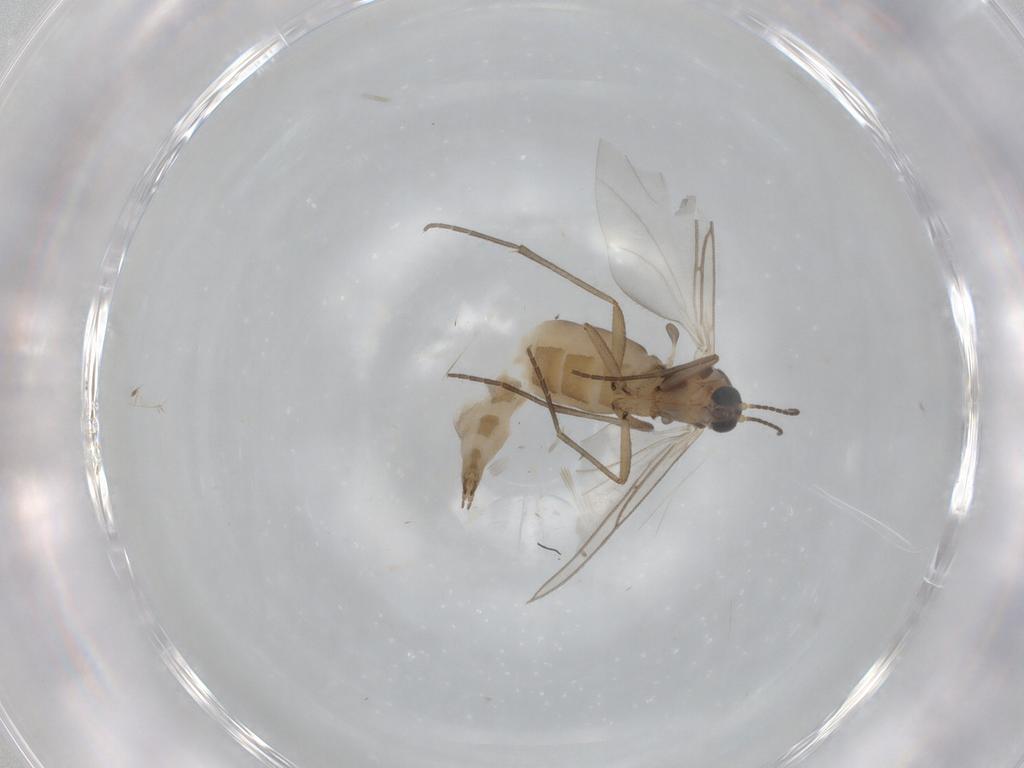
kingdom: Animalia
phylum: Arthropoda
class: Insecta
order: Diptera
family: Sciaridae
